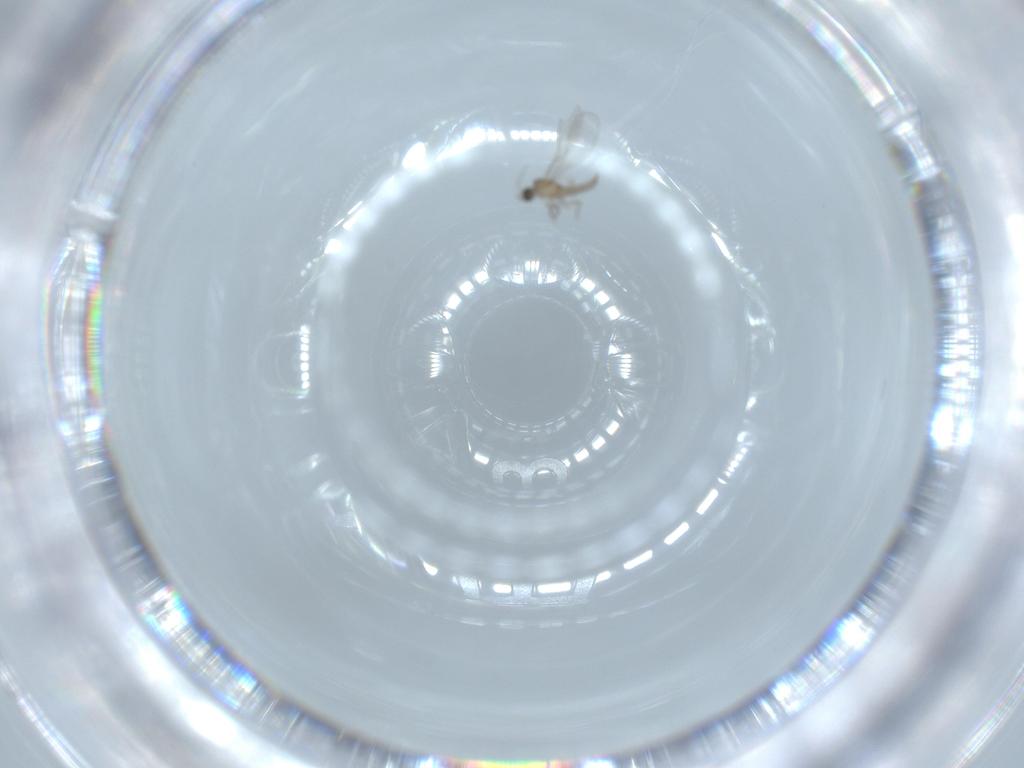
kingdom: Animalia
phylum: Arthropoda
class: Insecta
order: Diptera
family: Cecidomyiidae
